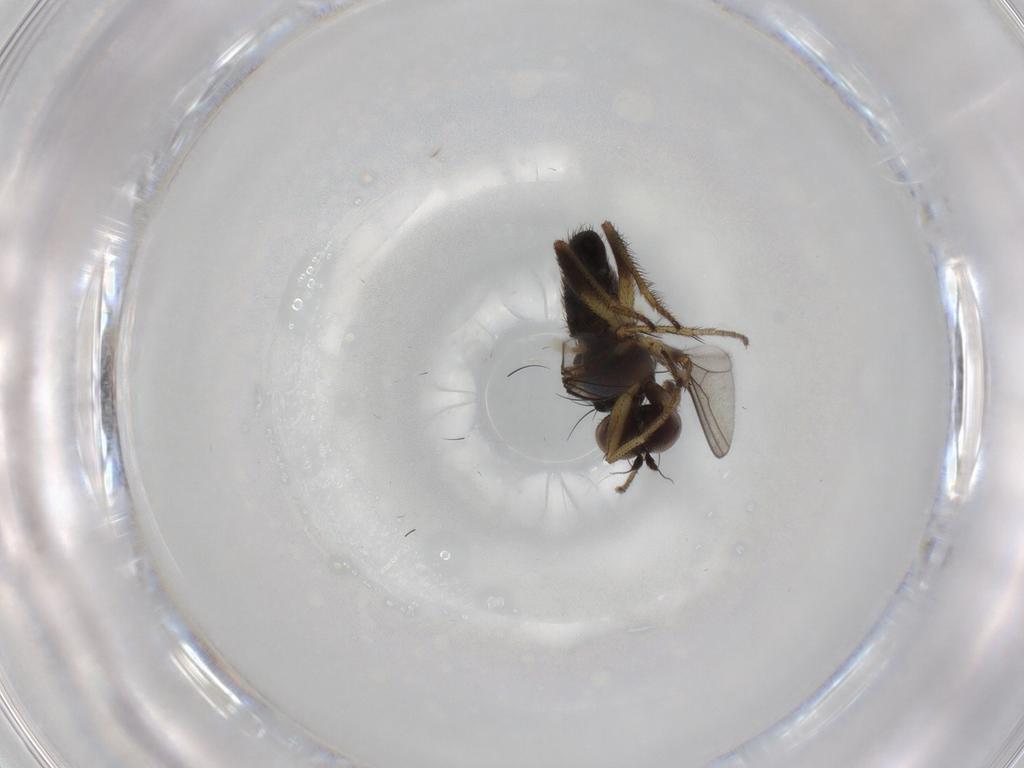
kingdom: Animalia
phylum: Arthropoda
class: Insecta
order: Diptera
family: Dolichopodidae
